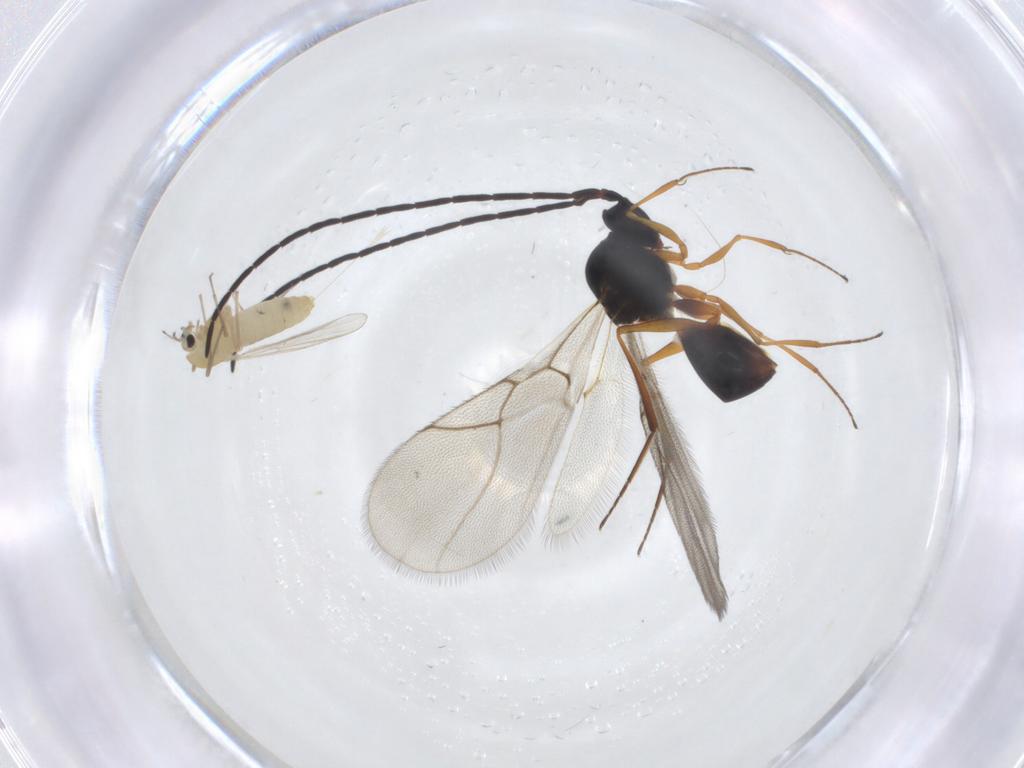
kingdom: Animalia
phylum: Arthropoda
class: Insecta
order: Diptera
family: Chironomidae
